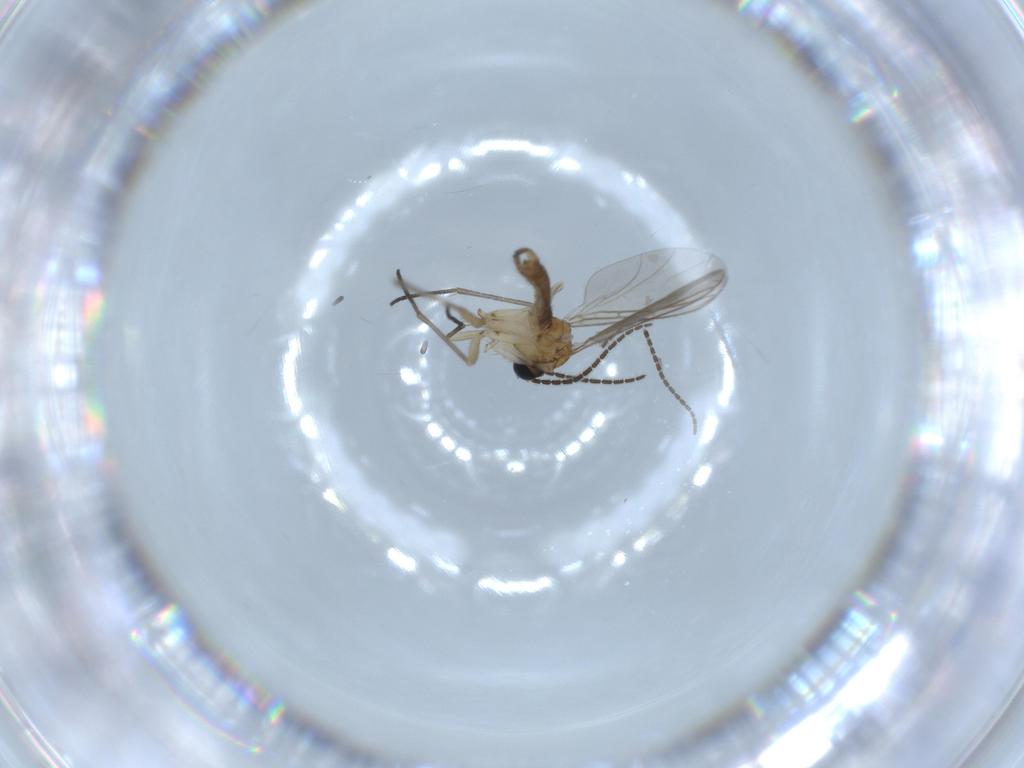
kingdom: Animalia
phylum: Arthropoda
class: Insecta
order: Diptera
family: Sciaridae
